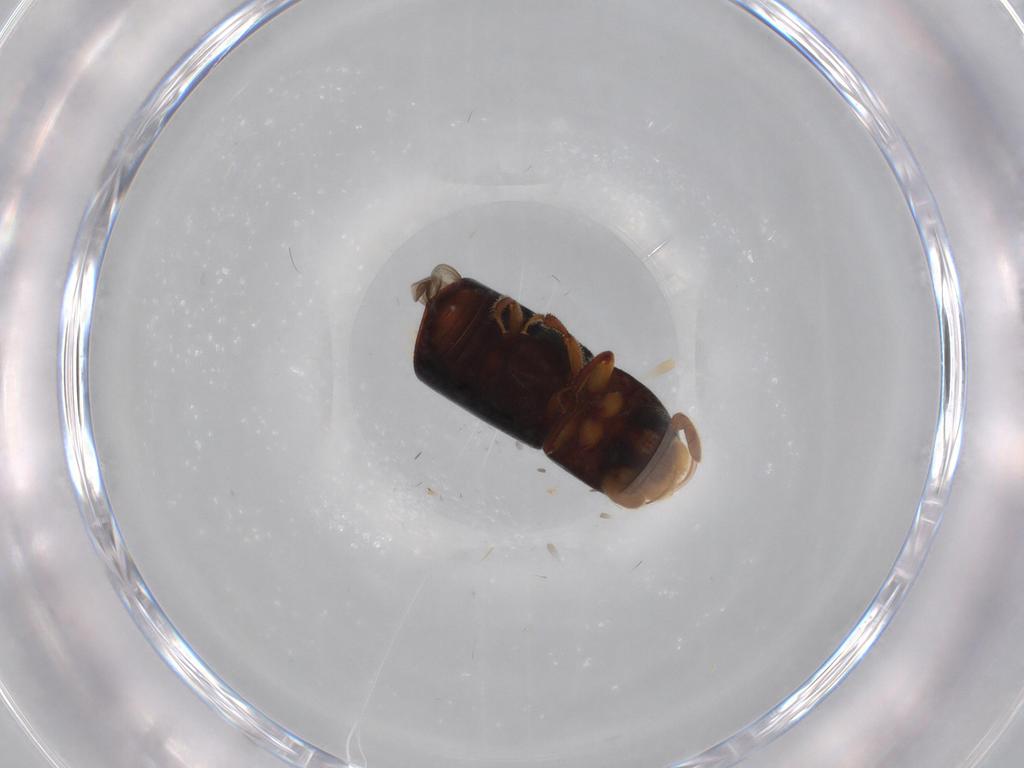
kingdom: Animalia
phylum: Arthropoda
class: Insecta
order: Coleoptera
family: Curculionidae
